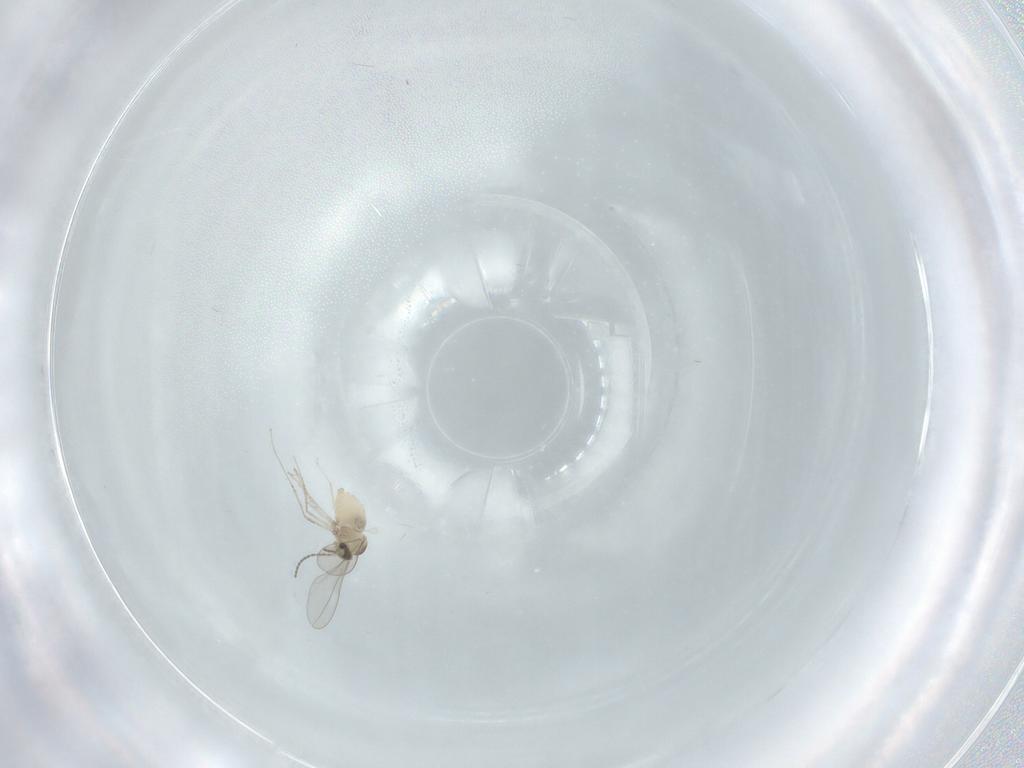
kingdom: Animalia
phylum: Arthropoda
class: Insecta
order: Diptera
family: Cecidomyiidae
